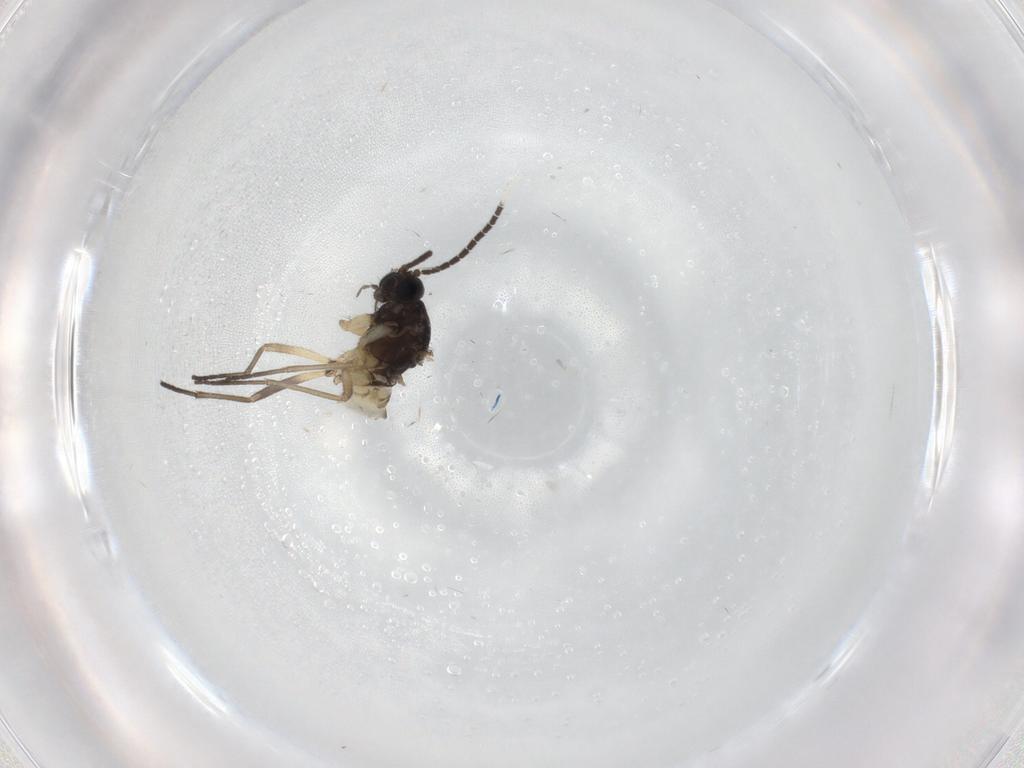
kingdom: Animalia
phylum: Arthropoda
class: Insecta
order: Diptera
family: Sciaridae
